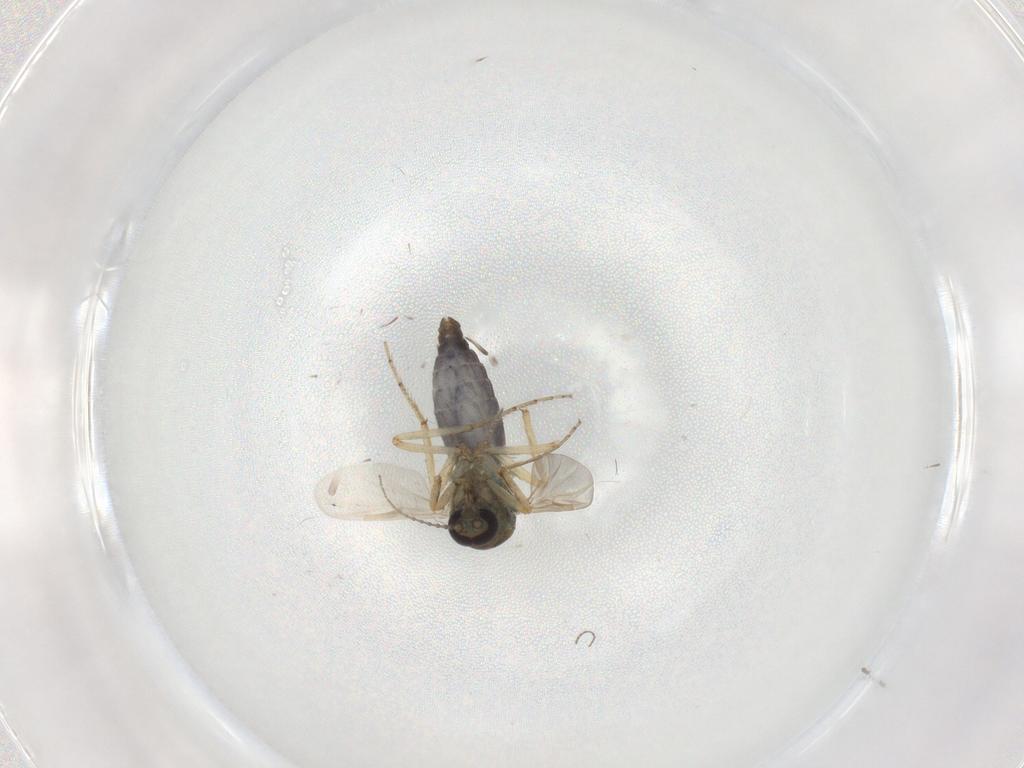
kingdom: Animalia
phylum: Arthropoda
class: Insecta
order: Diptera
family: Ceratopogonidae
